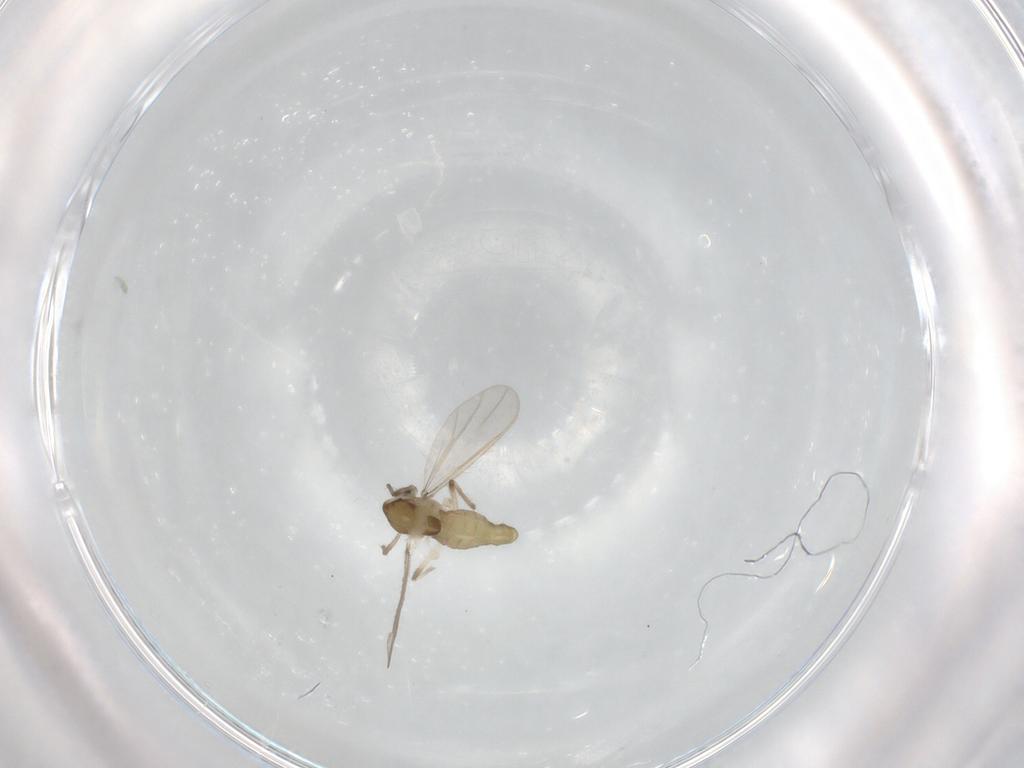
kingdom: Animalia
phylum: Arthropoda
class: Insecta
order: Diptera
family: Chironomidae
